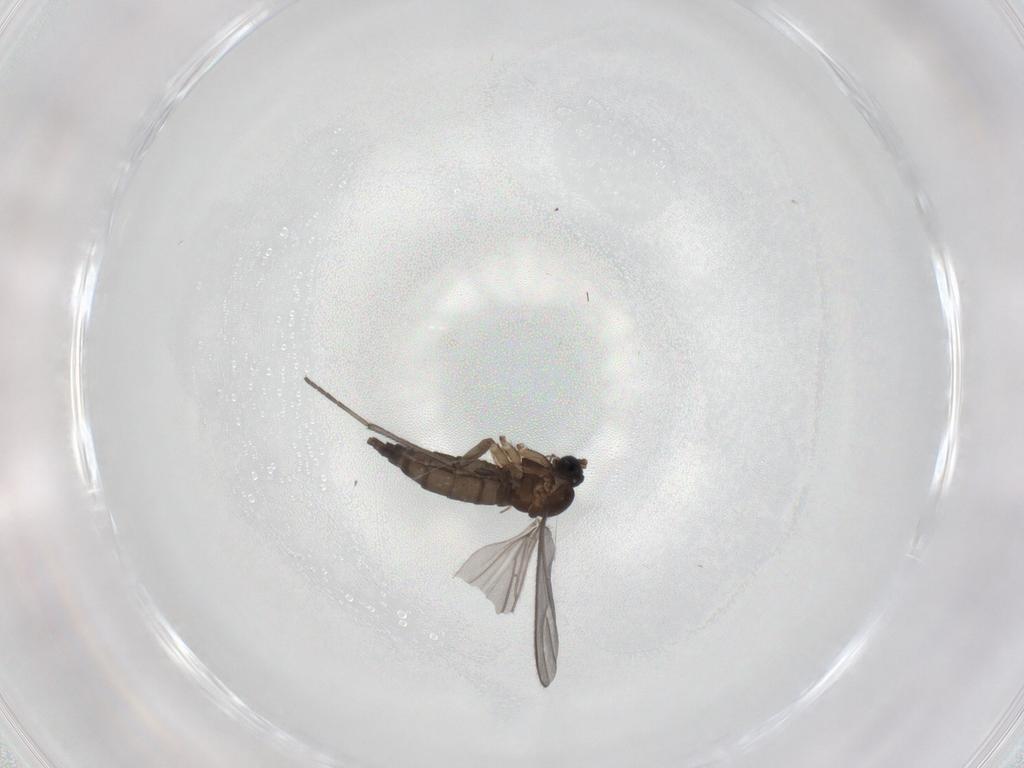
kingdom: Animalia
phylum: Arthropoda
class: Insecta
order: Diptera
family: Sciaridae
